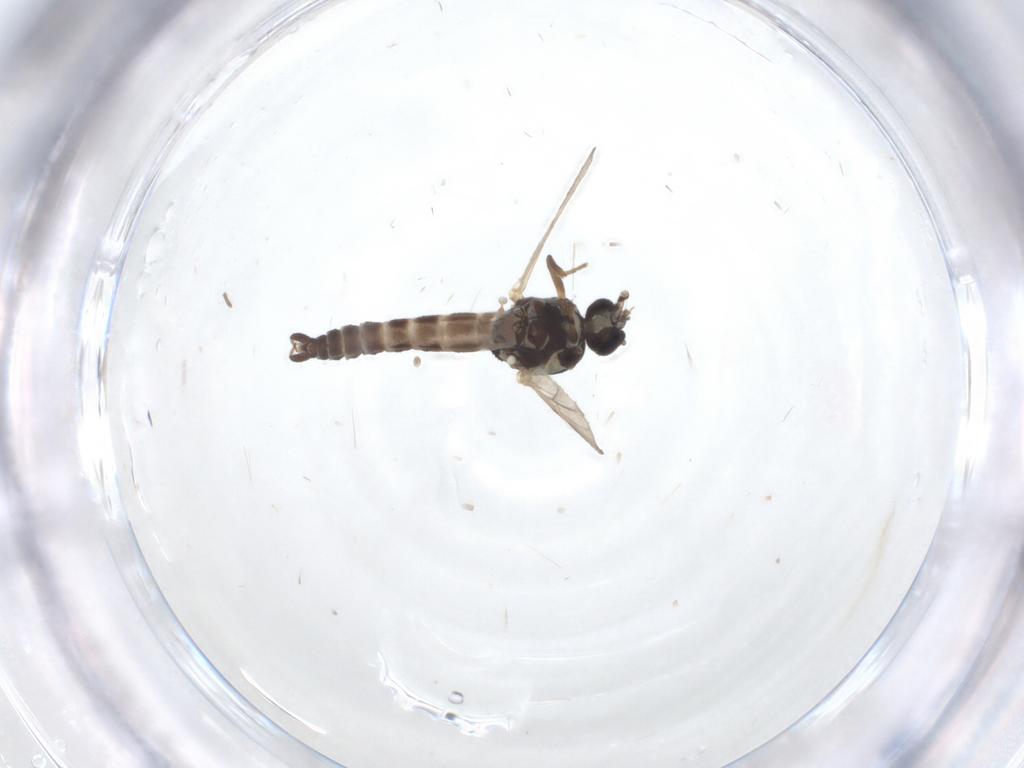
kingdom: Animalia
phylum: Arthropoda
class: Insecta
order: Diptera
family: Ceratopogonidae
